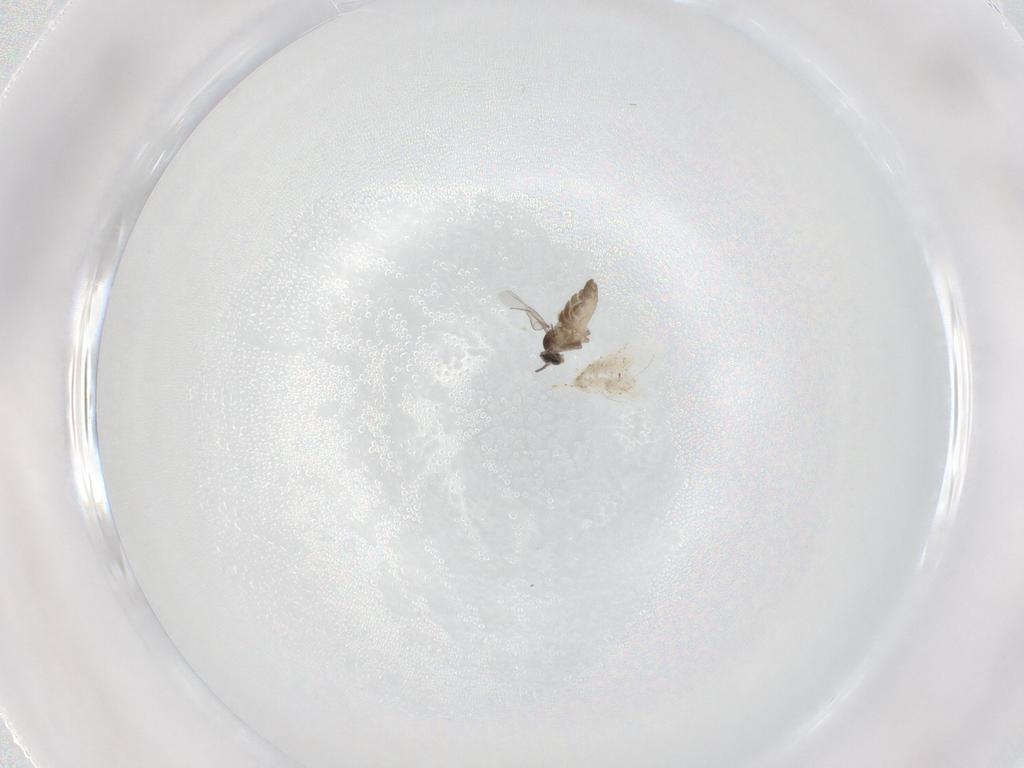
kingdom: Animalia
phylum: Arthropoda
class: Insecta
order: Diptera
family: Cecidomyiidae
